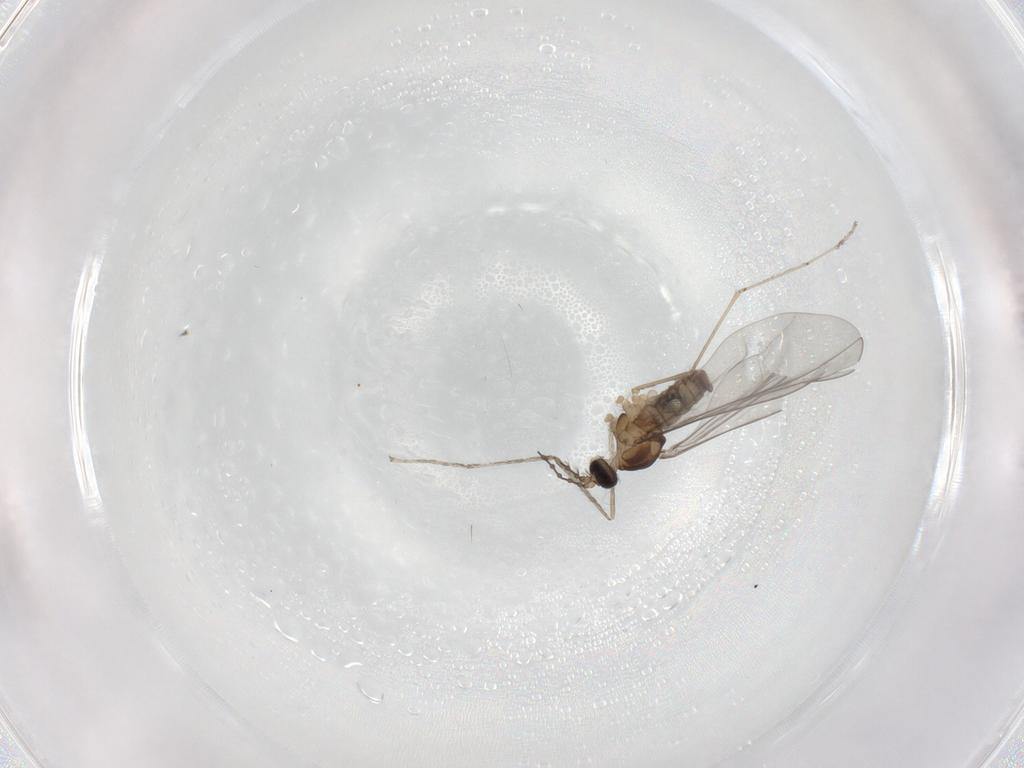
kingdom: Animalia
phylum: Arthropoda
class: Insecta
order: Diptera
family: Cecidomyiidae
